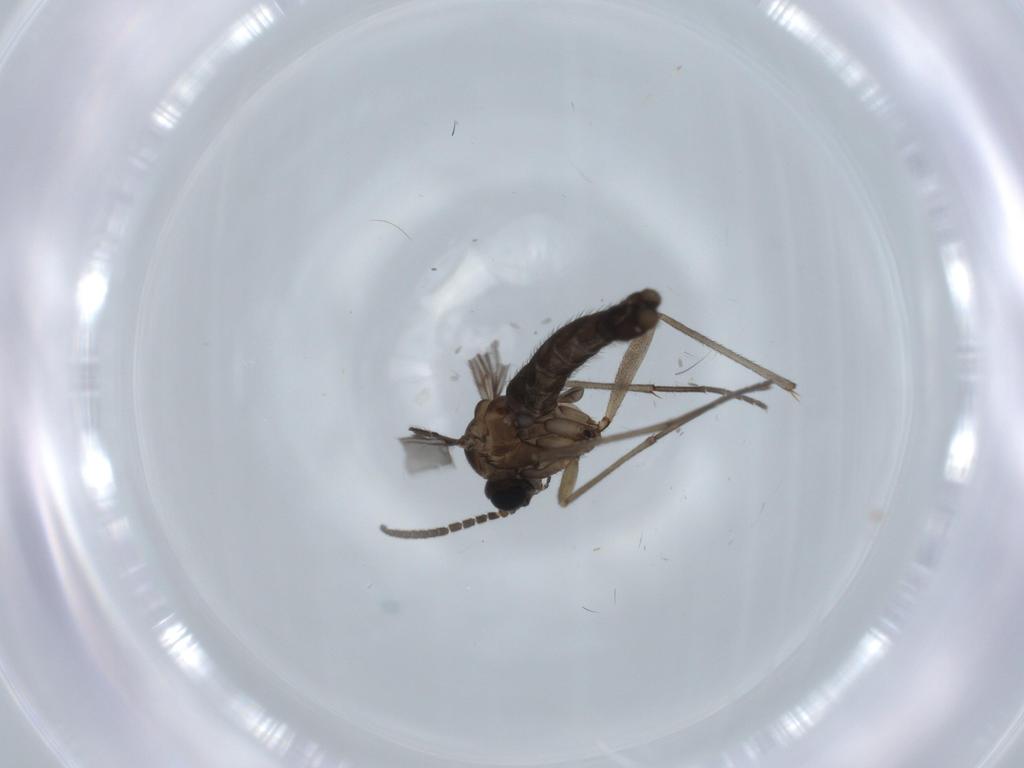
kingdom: Animalia
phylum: Arthropoda
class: Insecta
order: Diptera
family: Sciaridae
